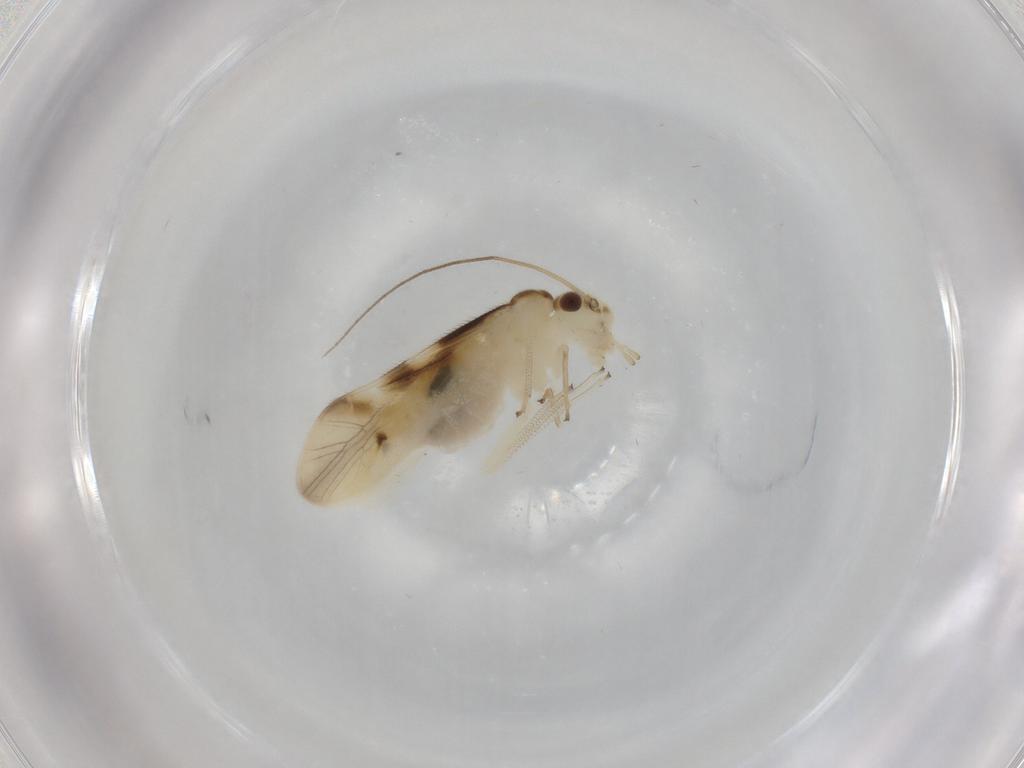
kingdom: Animalia
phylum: Arthropoda
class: Insecta
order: Psocodea
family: Caeciliusidae
